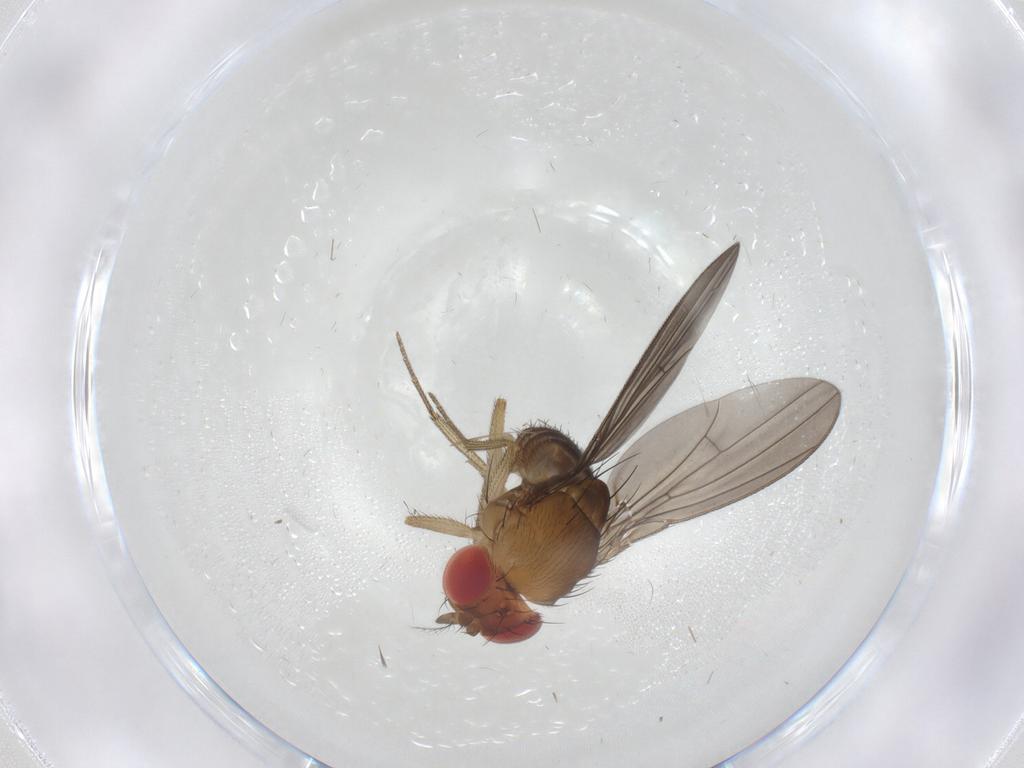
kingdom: Animalia
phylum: Arthropoda
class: Insecta
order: Diptera
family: Drosophilidae
